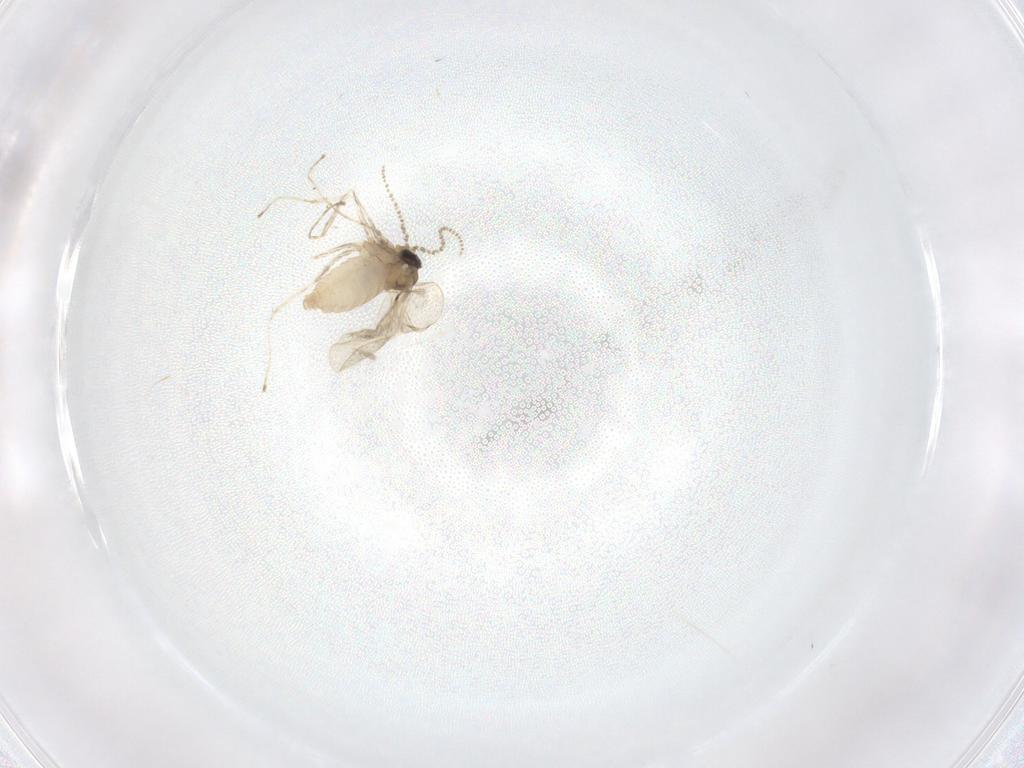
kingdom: Animalia
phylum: Arthropoda
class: Insecta
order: Diptera
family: Cecidomyiidae
